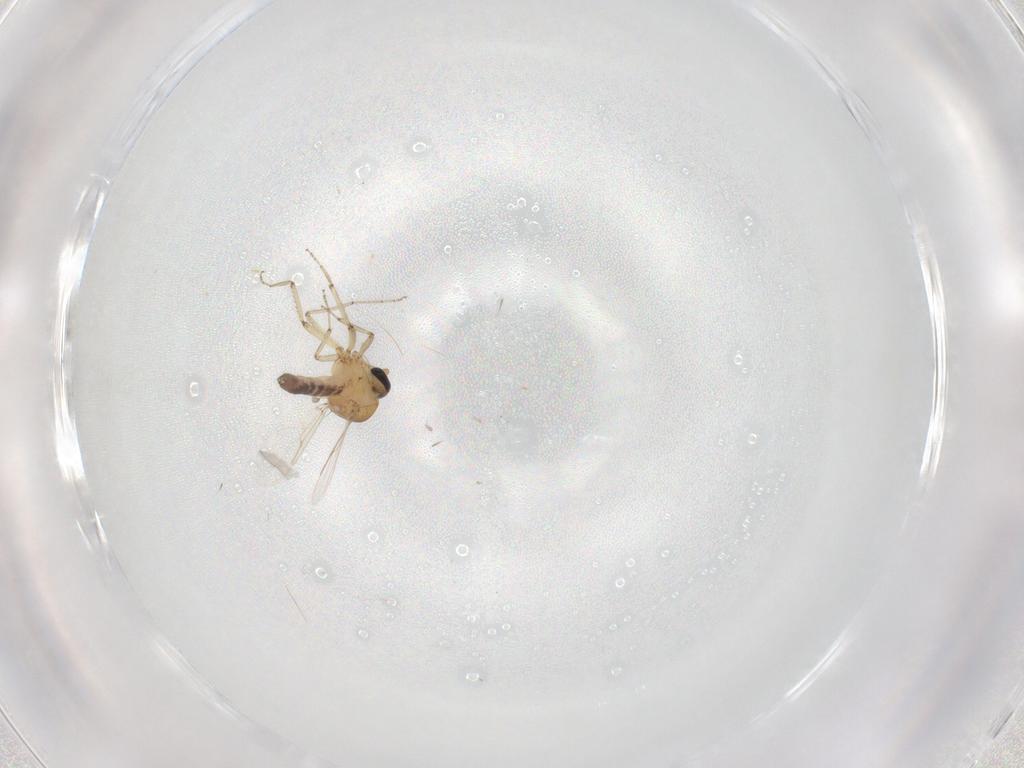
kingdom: Animalia
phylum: Arthropoda
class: Insecta
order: Diptera
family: Ceratopogonidae
